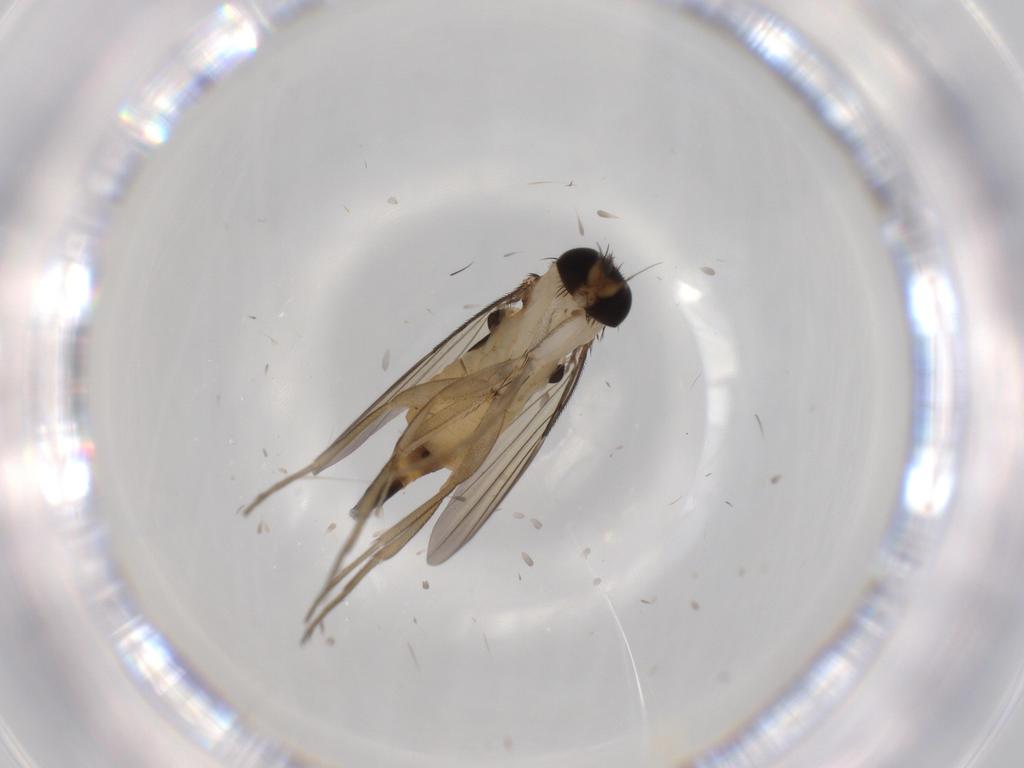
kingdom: Animalia
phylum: Arthropoda
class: Insecta
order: Diptera
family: Phoridae
